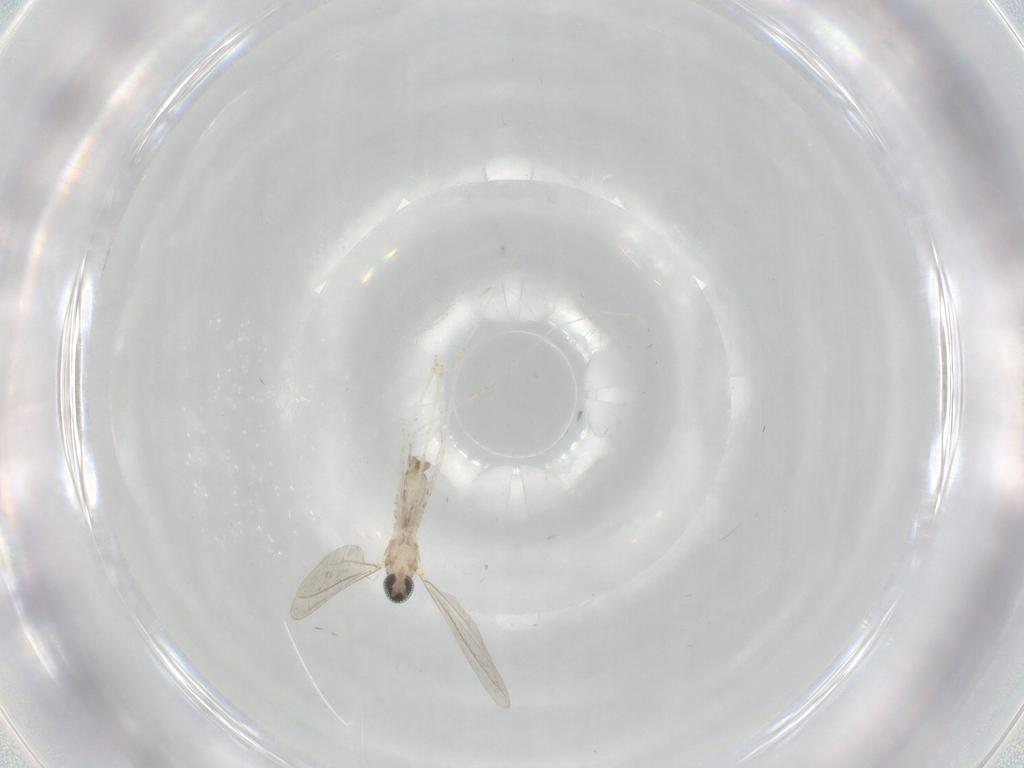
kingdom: Animalia
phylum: Arthropoda
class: Insecta
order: Diptera
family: Cecidomyiidae
